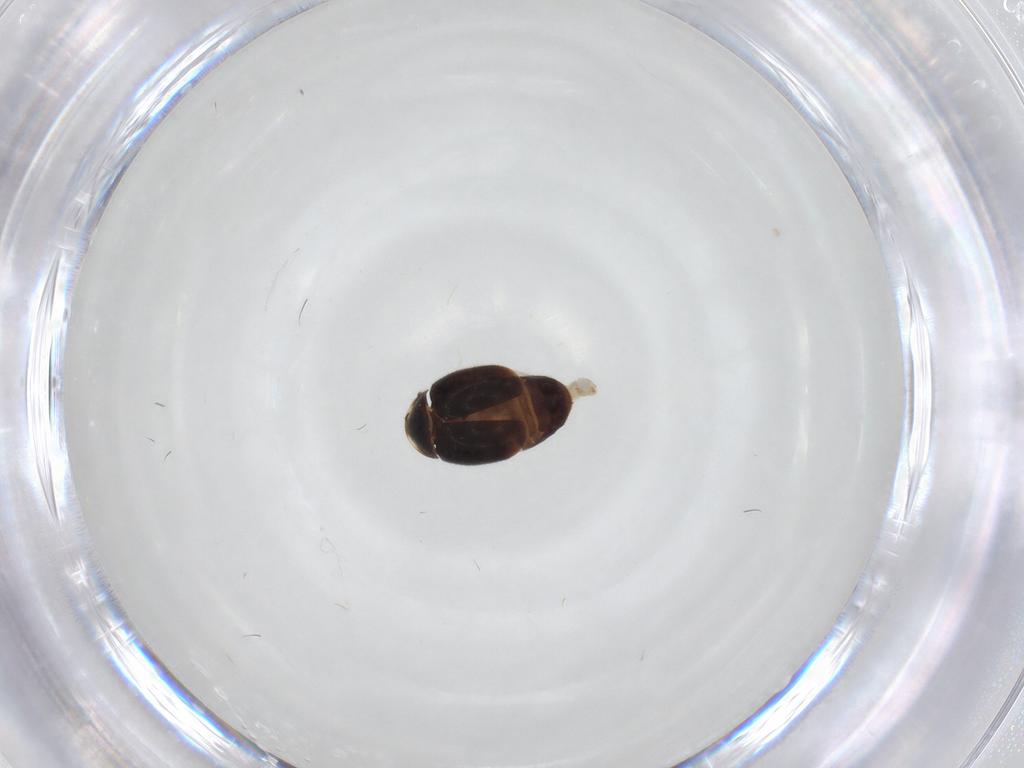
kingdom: Animalia
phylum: Arthropoda
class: Insecta
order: Coleoptera
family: Corylophidae
